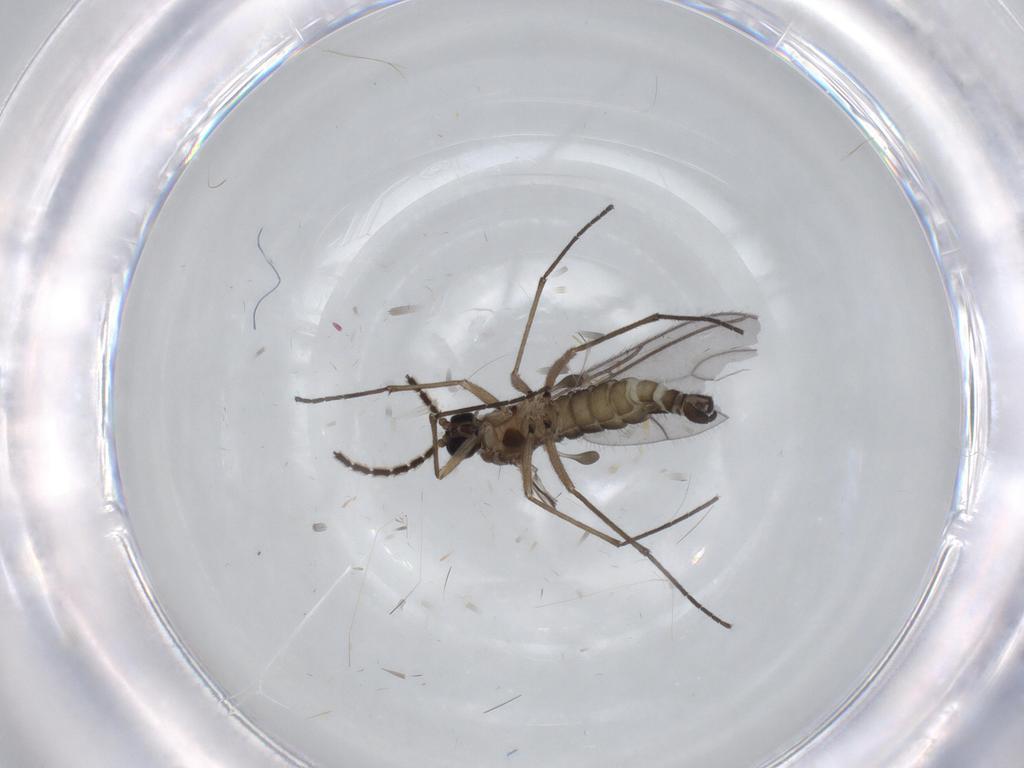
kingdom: Animalia
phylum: Arthropoda
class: Insecta
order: Diptera
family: Sciaridae
